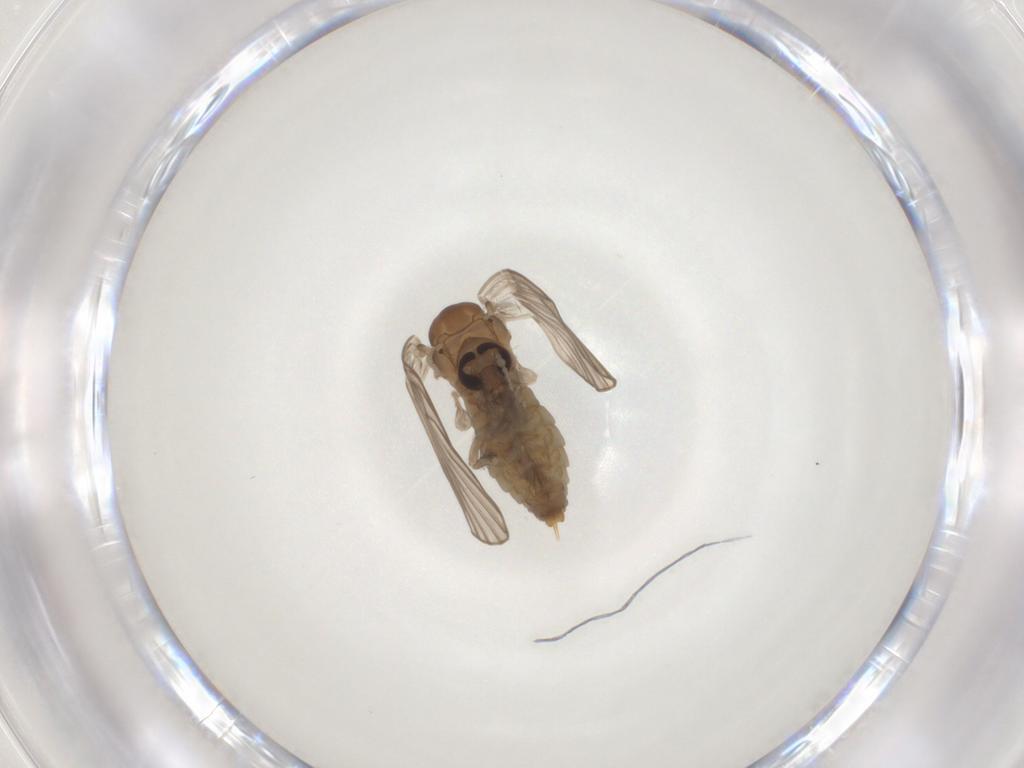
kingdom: Animalia
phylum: Arthropoda
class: Insecta
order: Diptera
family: Psychodidae
